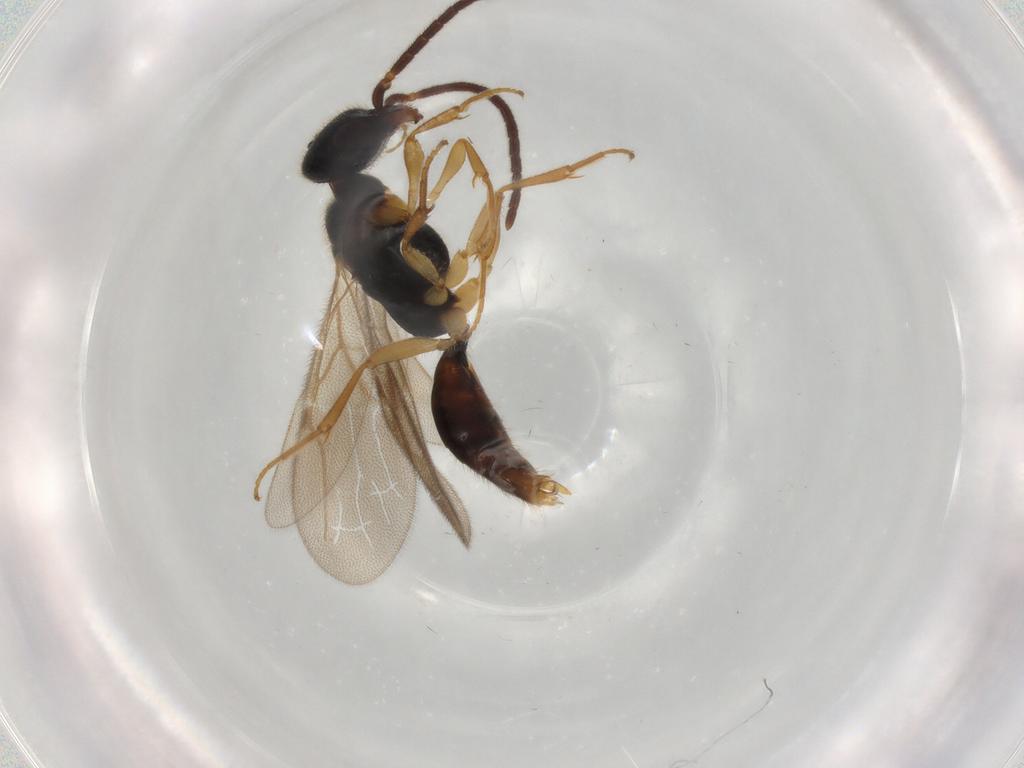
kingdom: Animalia
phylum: Arthropoda
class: Insecta
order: Hymenoptera
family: Dryinidae
